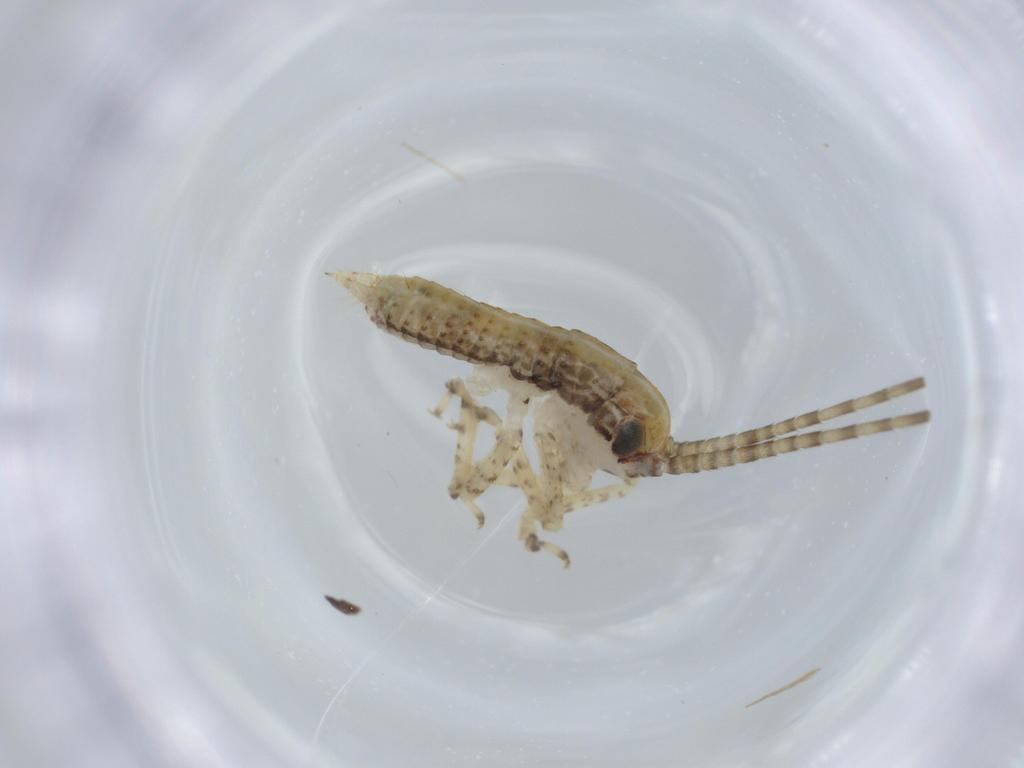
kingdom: Animalia
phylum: Arthropoda
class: Insecta
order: Orthoptera
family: Gryllidae
